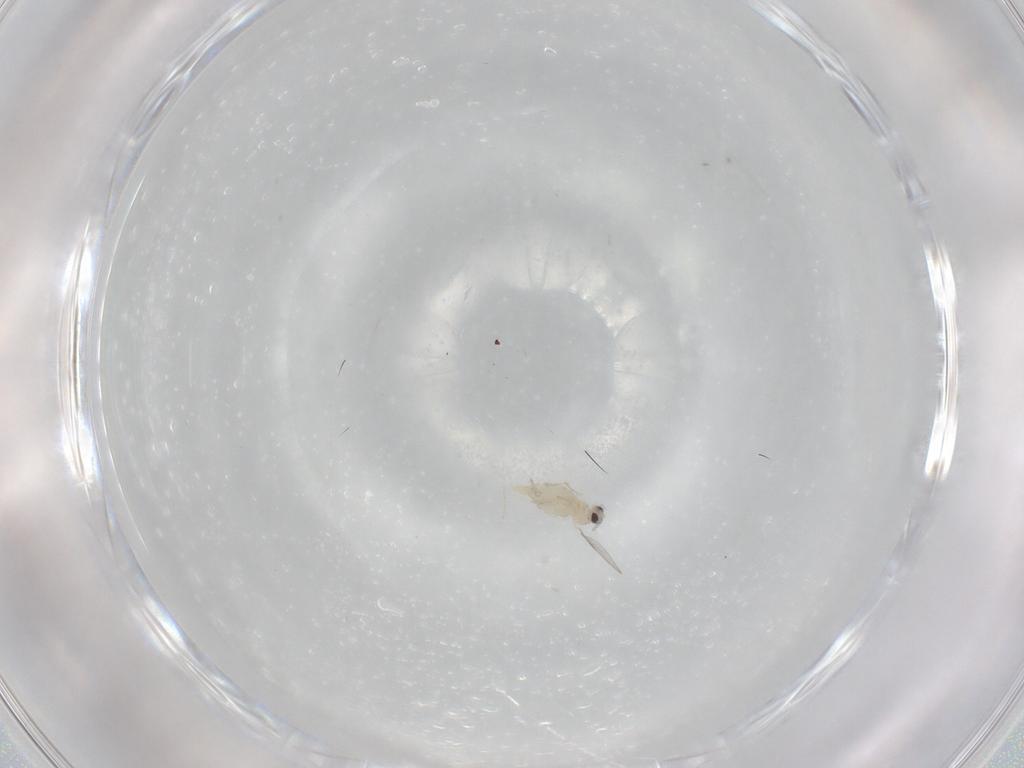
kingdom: Animalia
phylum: Arthropoda
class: Insecta
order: Diptera
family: Cecidomyiidae
